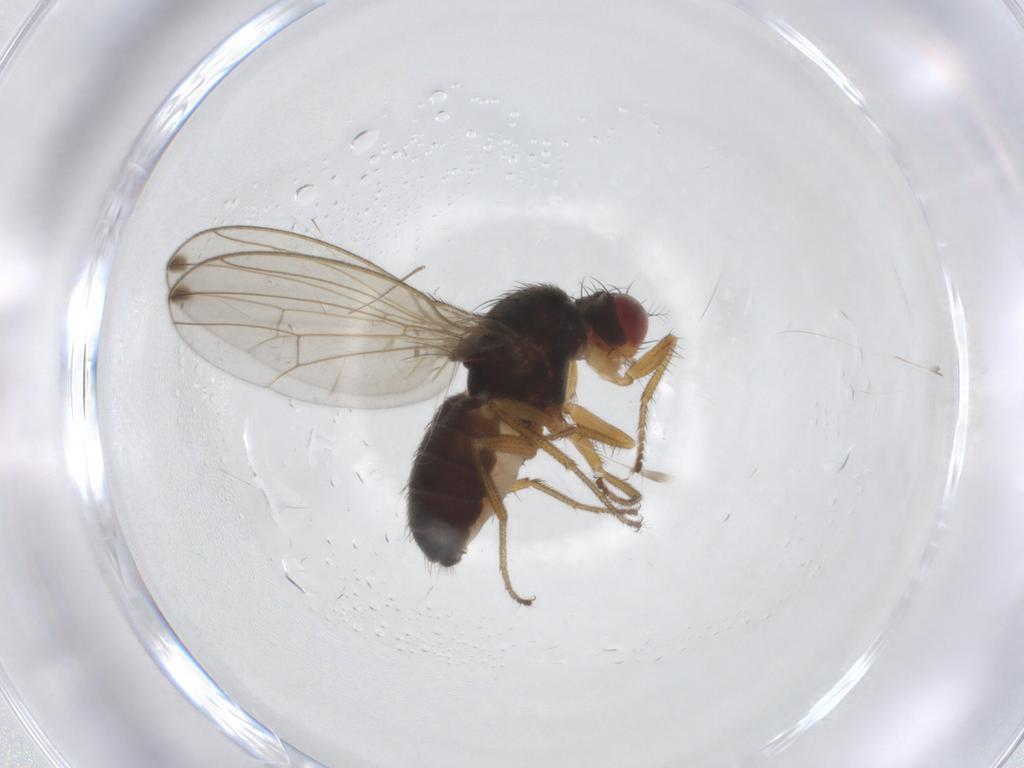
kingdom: Animalia
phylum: Arthropoda
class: Insecta
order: Diptera
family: Drosophilidae
